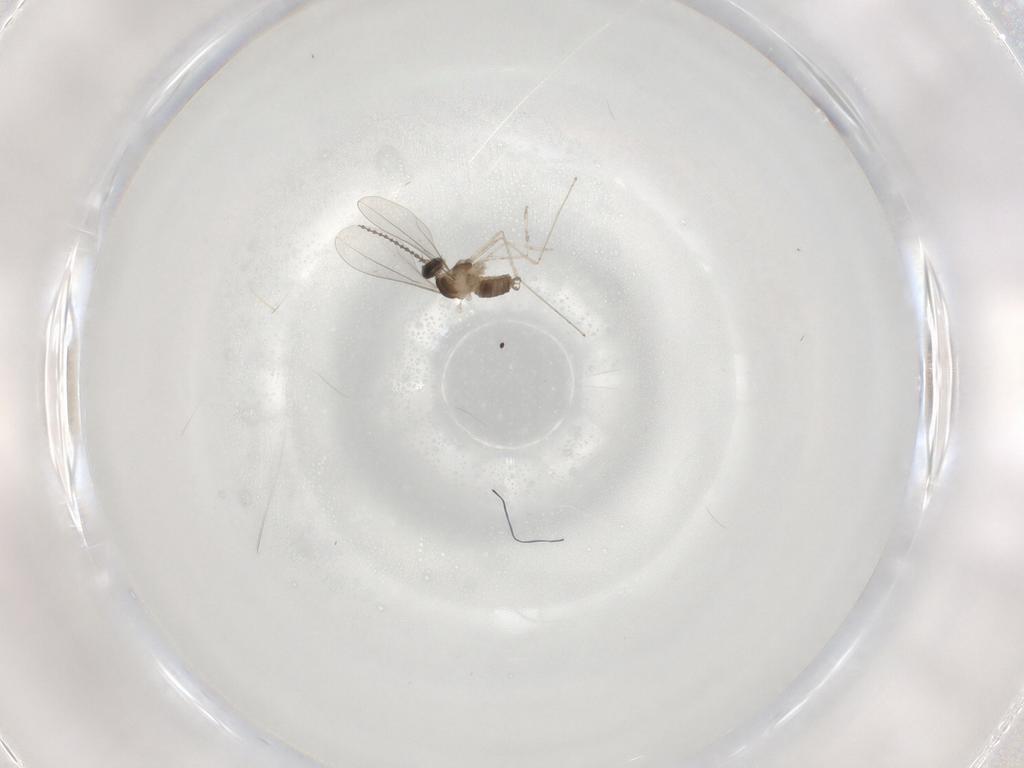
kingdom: Animalia
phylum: Arthropoda
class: Insecta
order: Diptera
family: Cecidomyiidae
